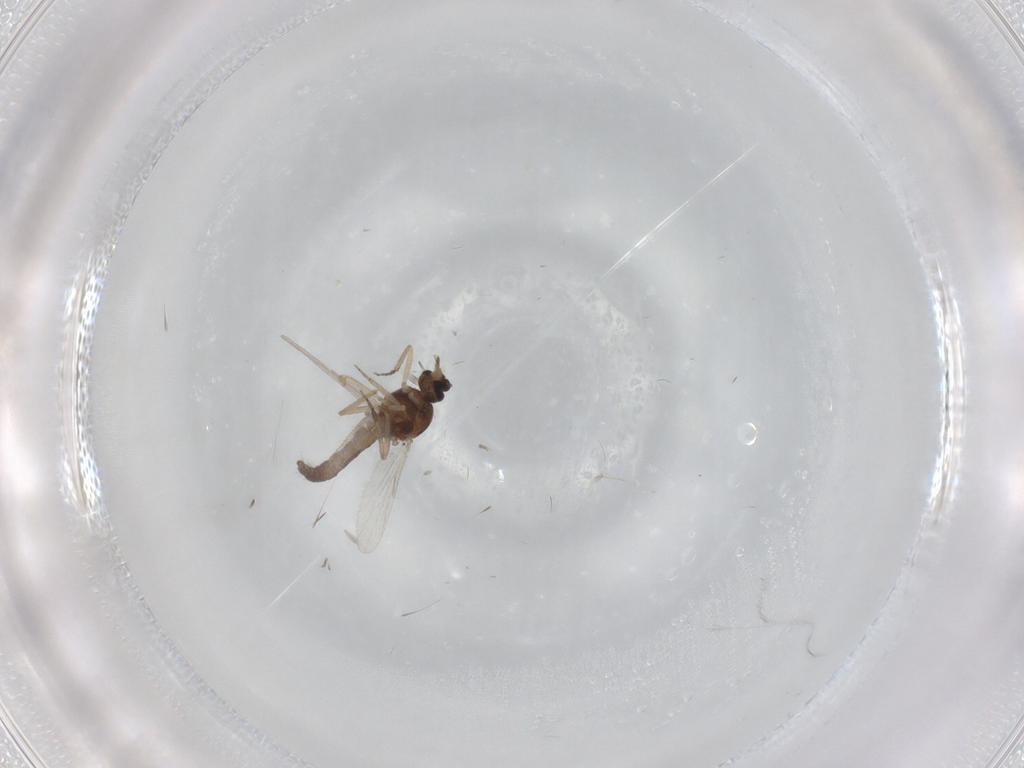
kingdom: Animalia
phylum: Arthropoda
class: Insecta
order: Diptera
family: Ceratopogonidae
